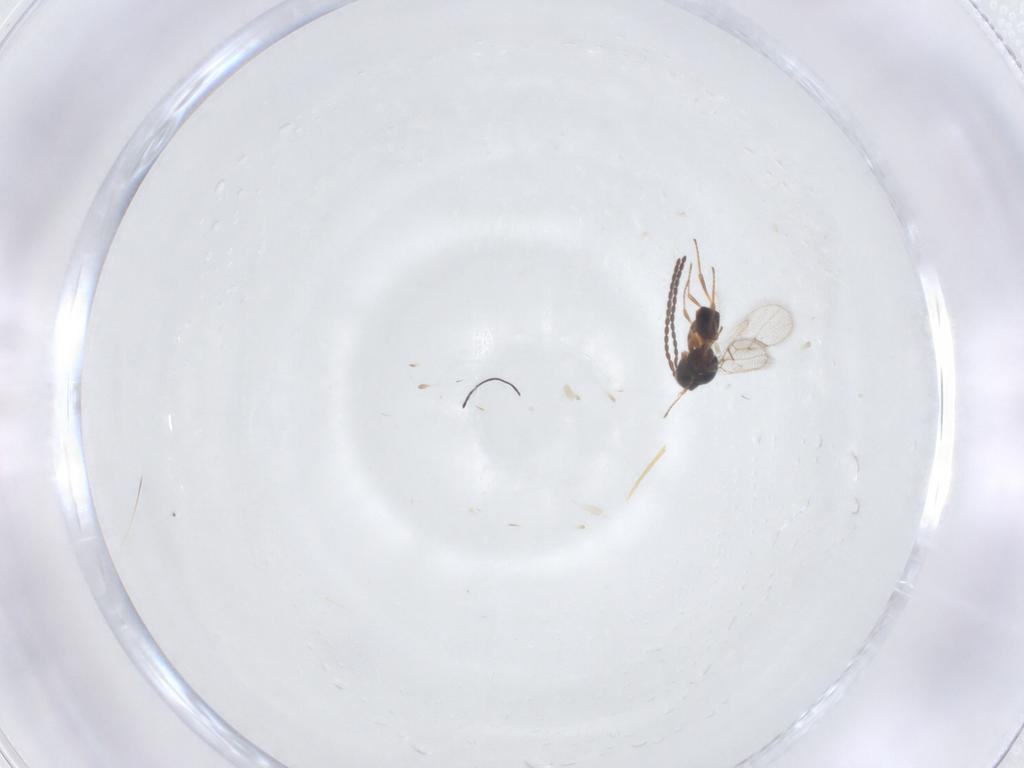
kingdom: Animalia
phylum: Arthropoda
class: Insecta
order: Hymenoptera
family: Figitidae
